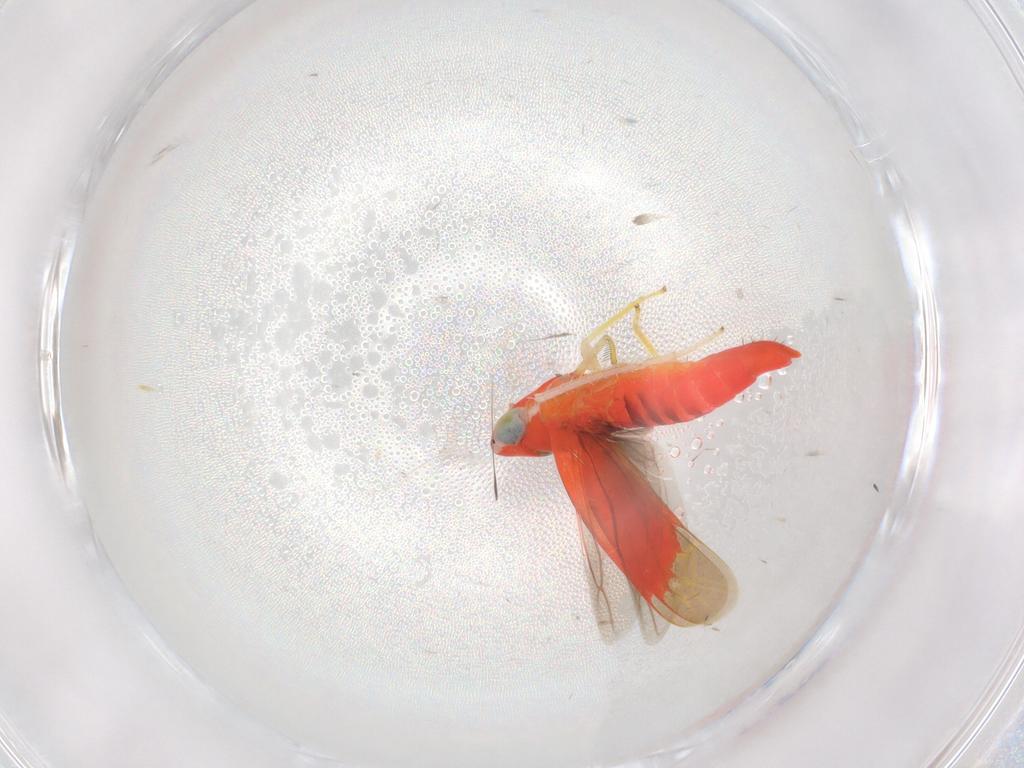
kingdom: Animalia
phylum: Arthropoda
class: Insecta
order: Hemiptera
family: Cicadellidae
